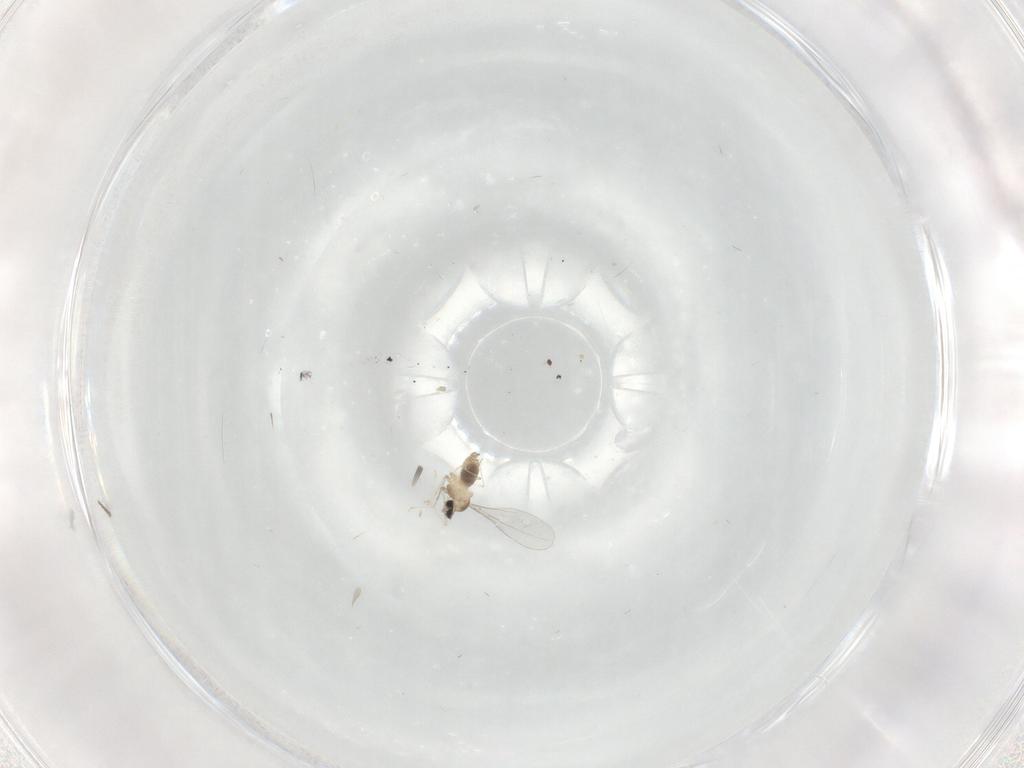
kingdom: Animalia
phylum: Arthropoda
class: Insecta
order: Diptera
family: Cecidomyiidae
